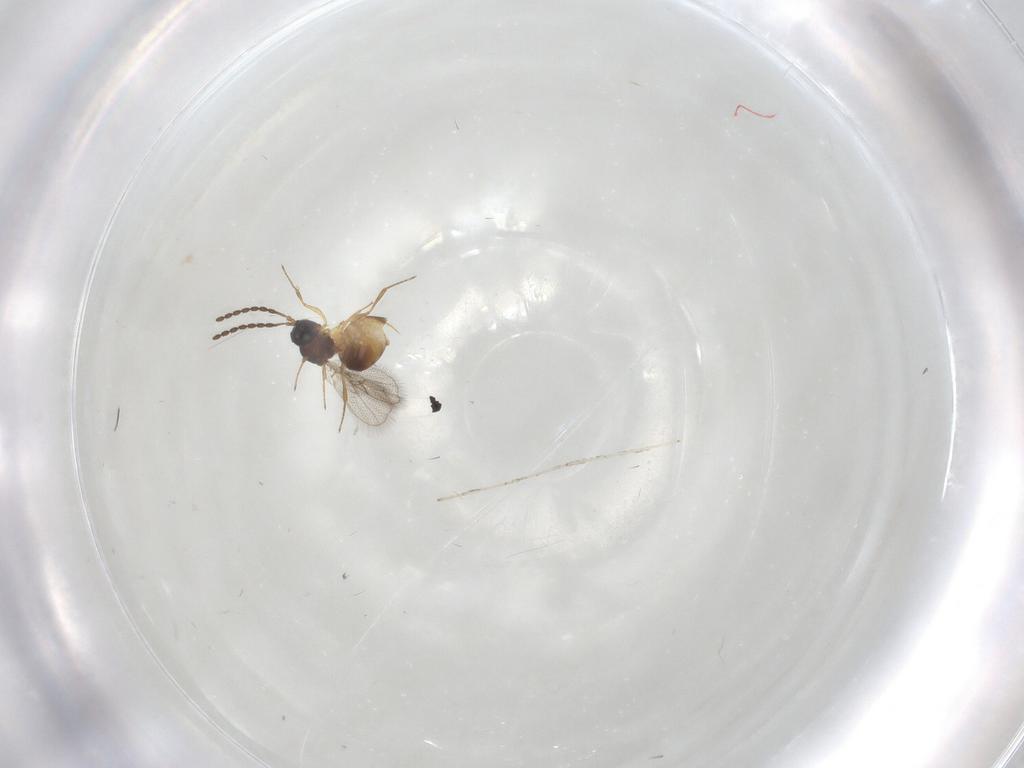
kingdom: Animalia
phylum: Arthropoda
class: Insecta
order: Hymenoptera
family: Figitidae
